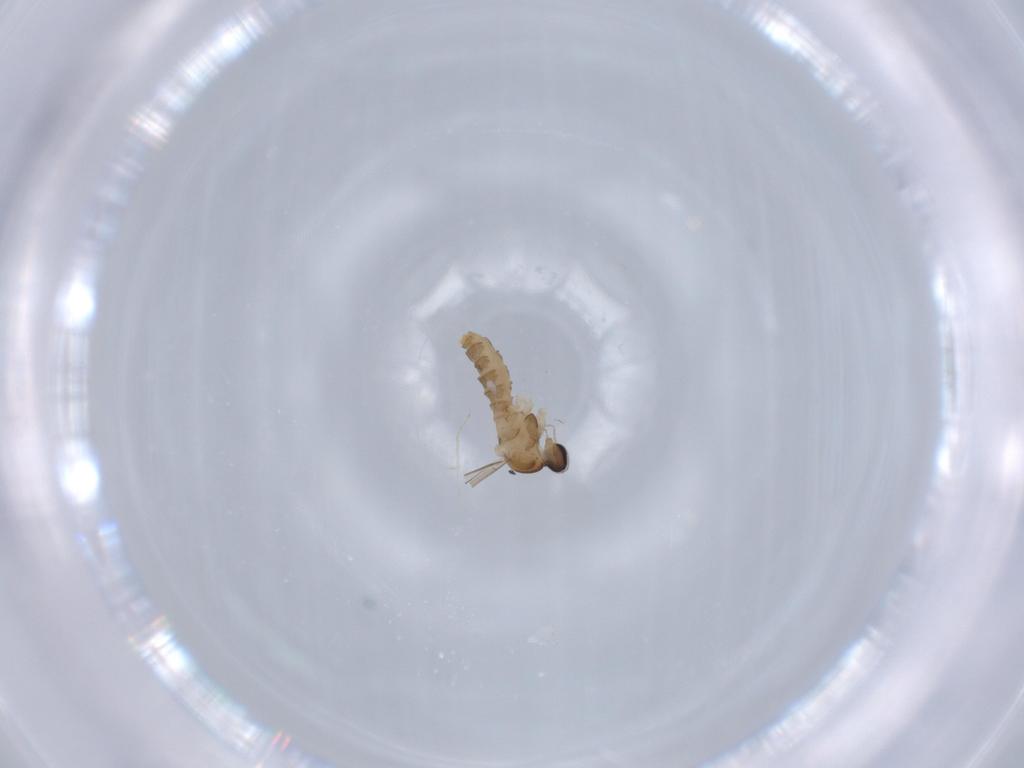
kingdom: Animalia
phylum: Arthropoda
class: Insecta
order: Diptera
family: Cecidomyiidae
